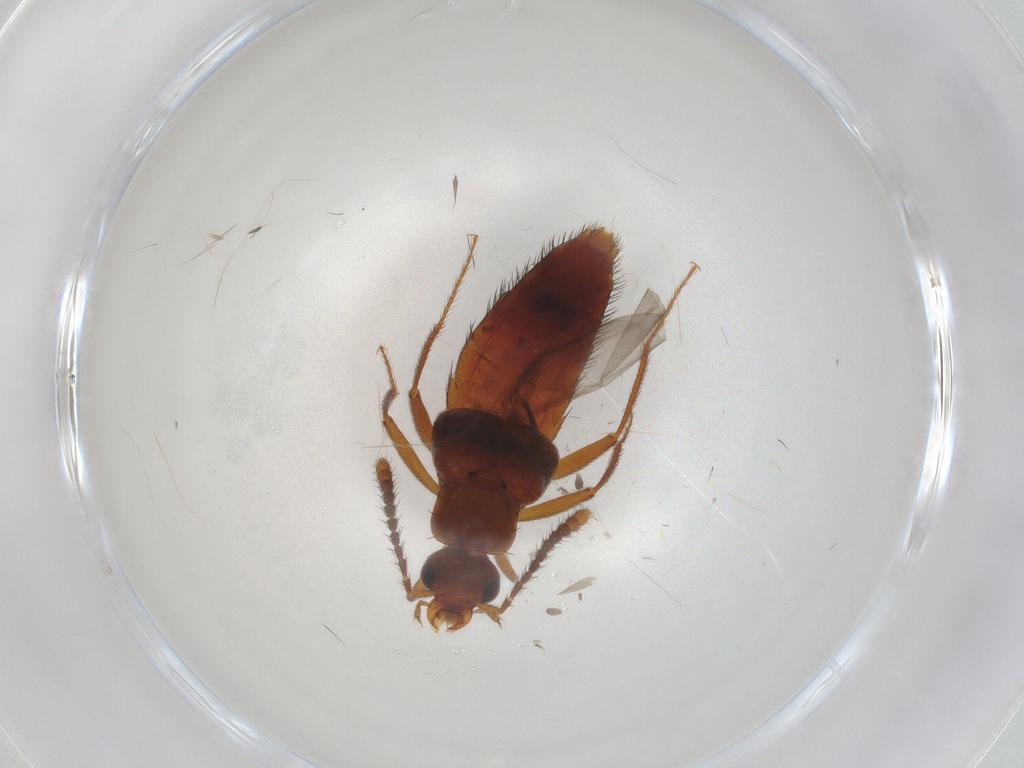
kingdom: Animalia
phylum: Arthropoda
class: Insecta
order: Coleoptera
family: Staphylinidae
